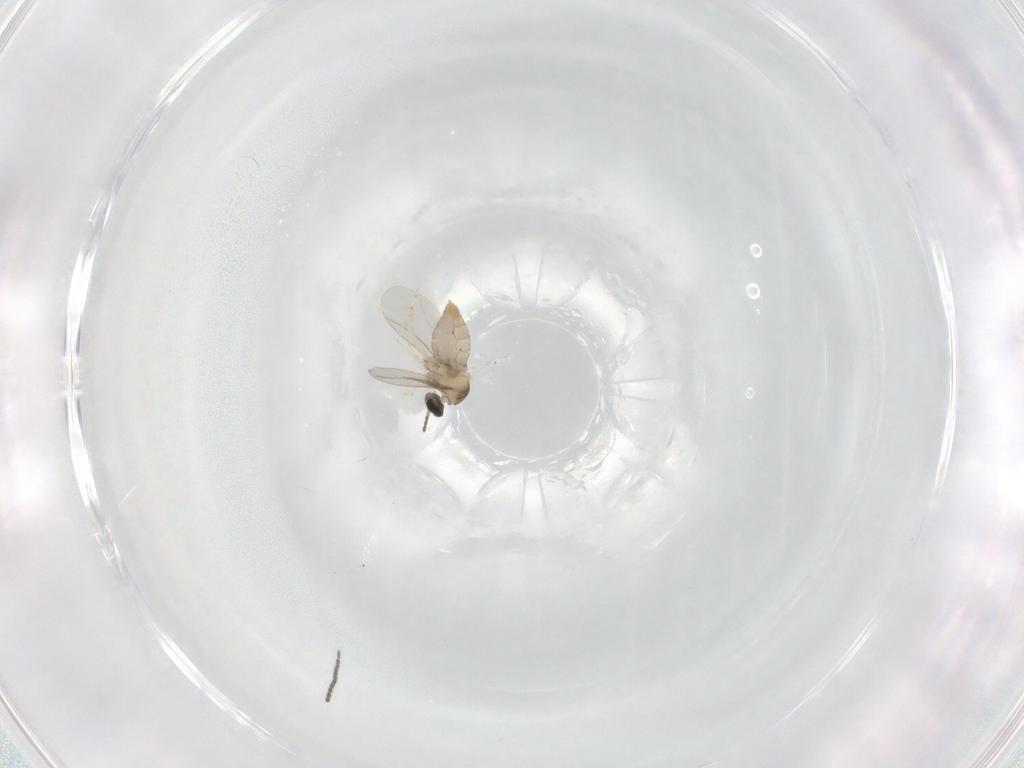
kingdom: Animalia
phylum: Arthropoda
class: Insecta
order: Diptera
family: Sciaridae
